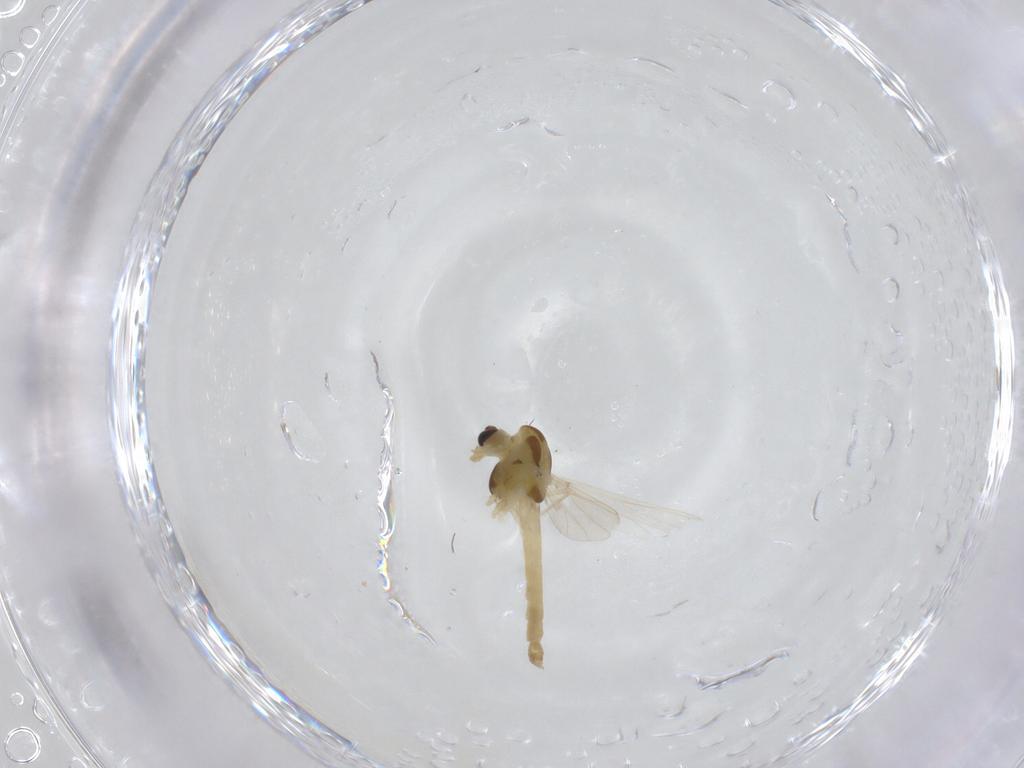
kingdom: Animalia
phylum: Arthropoda
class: Insecta
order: Diptera
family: Chironomidae
